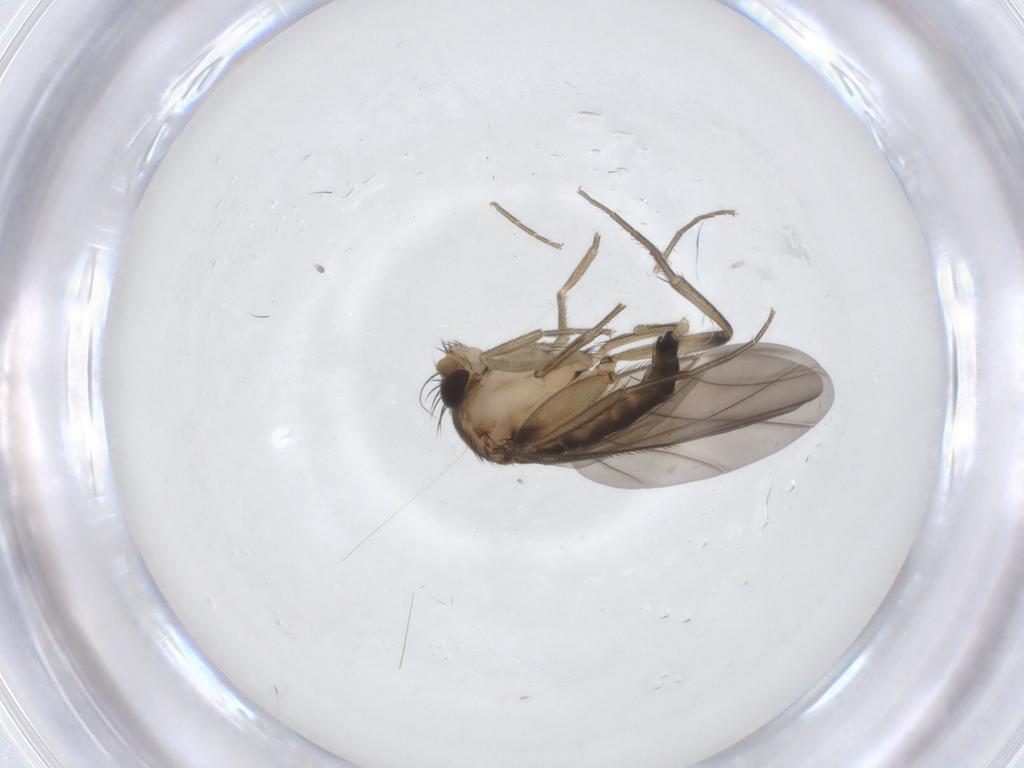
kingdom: Animalia
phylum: Arthropoda
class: Insecta
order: Diptera
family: Phoridae
